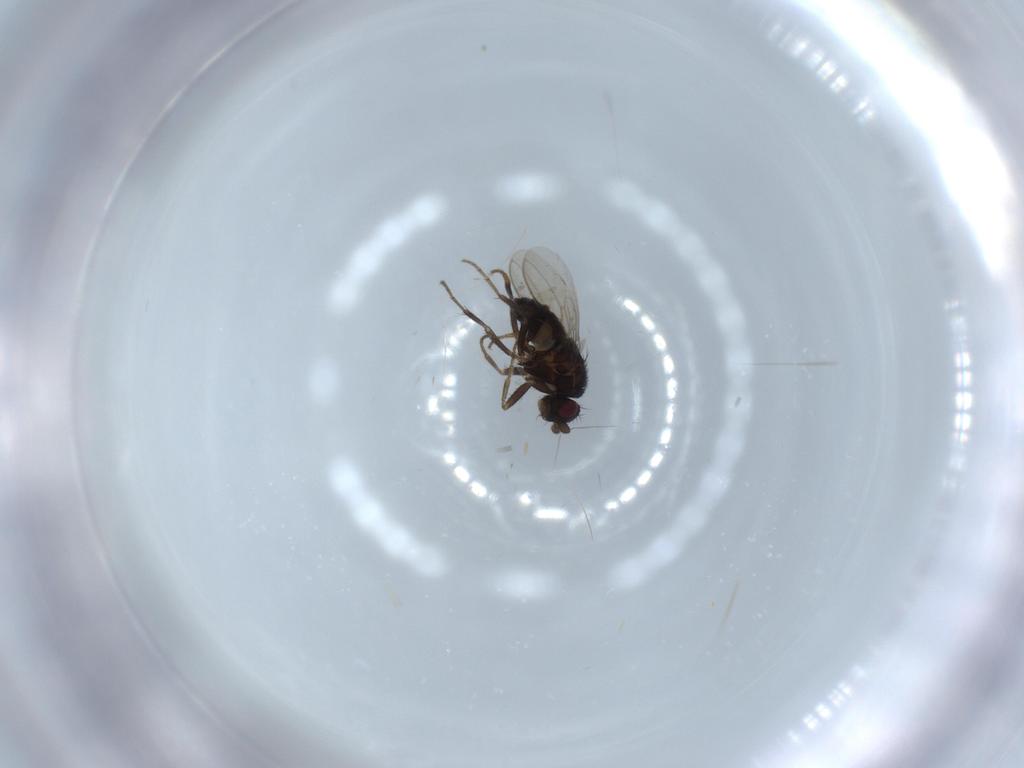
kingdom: Animalia
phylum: Arthropoda
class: Insecta
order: Diptera
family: Sphaeroceridae
